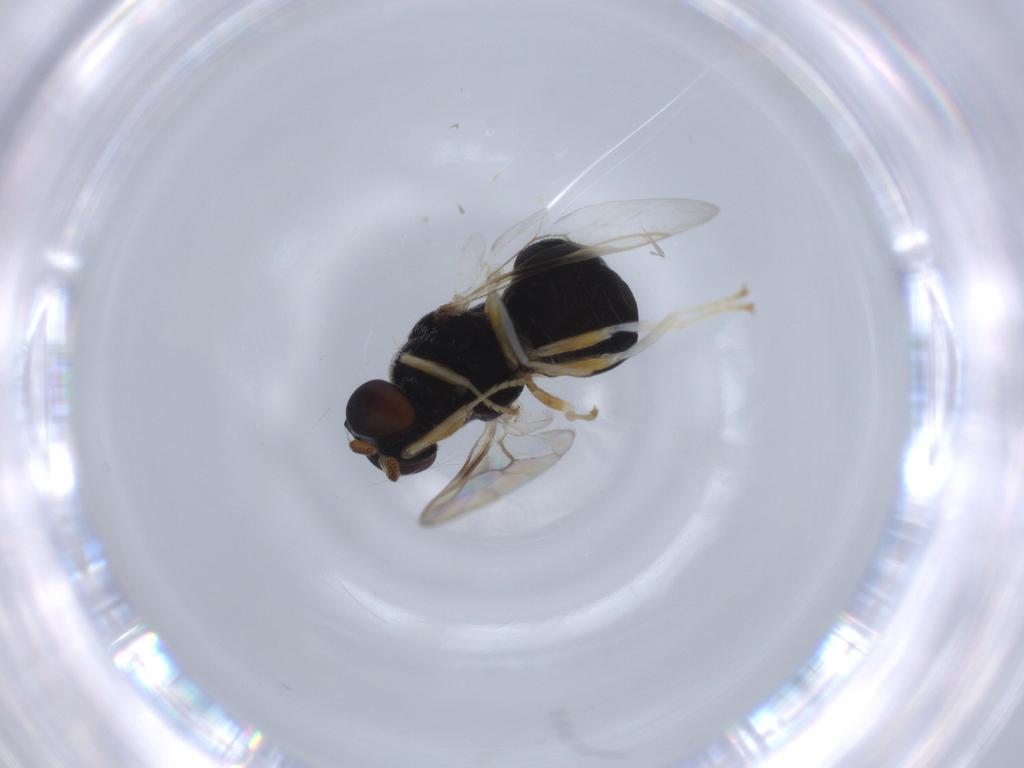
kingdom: Animalia
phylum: Arthropoda
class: Insecta
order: Diptera
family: Stratiomyidae
